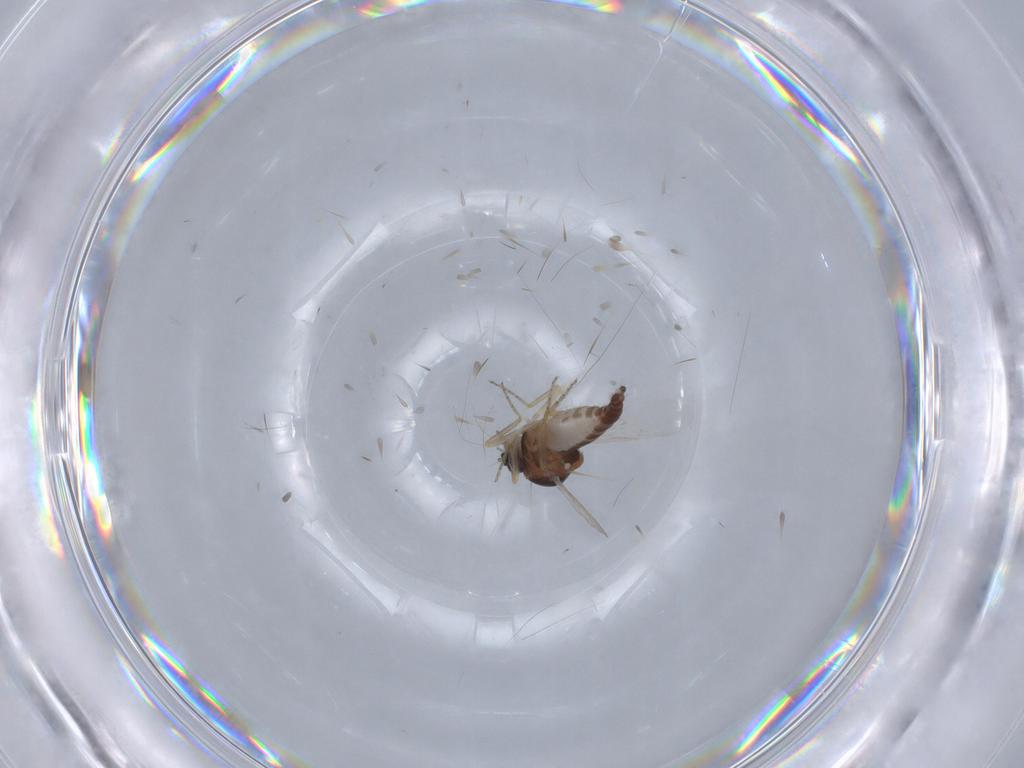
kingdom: Animalia
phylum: Arthropoda
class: Insecta
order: Diptera
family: Ceratopogonidae
